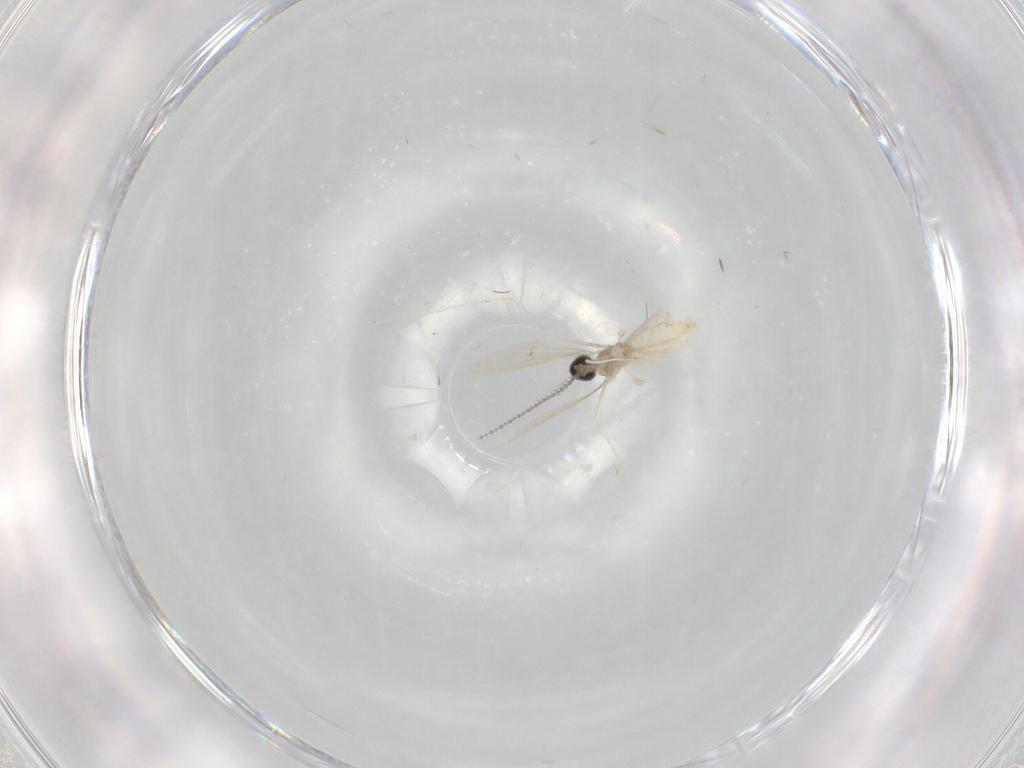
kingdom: Animalia
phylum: Arthropoda
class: Insecta
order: Diptera
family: Cecidomyiidae
